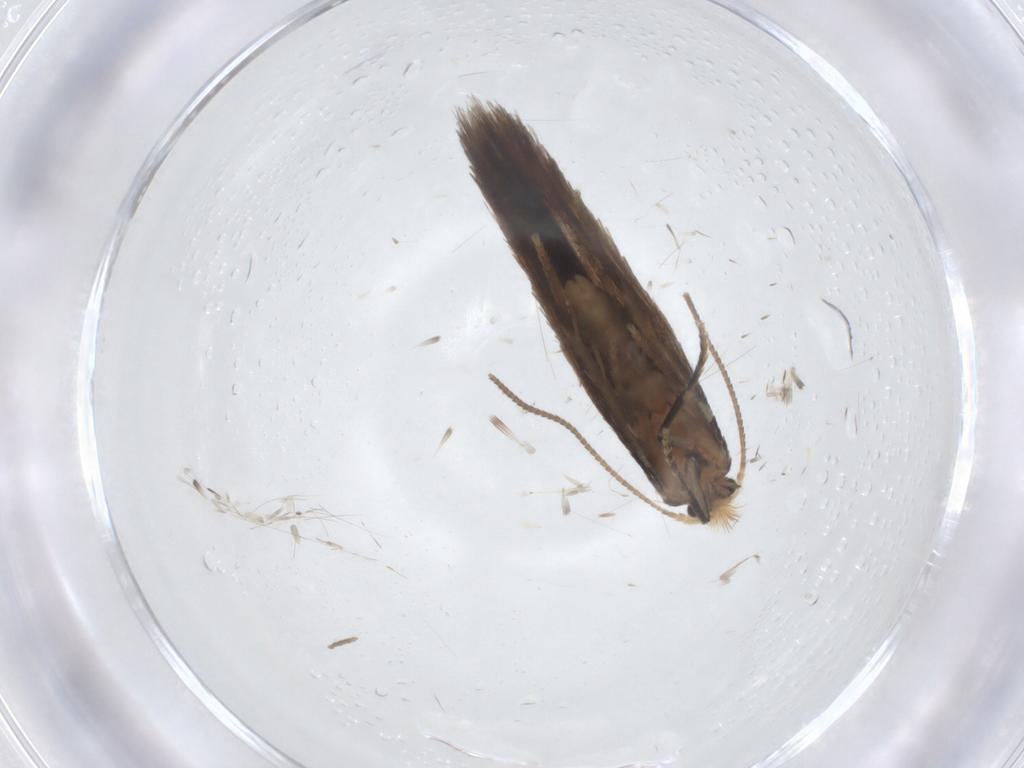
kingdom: Animalia
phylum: Arthropoda
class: Insecta
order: Lepidoptera
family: Nepticulidae
